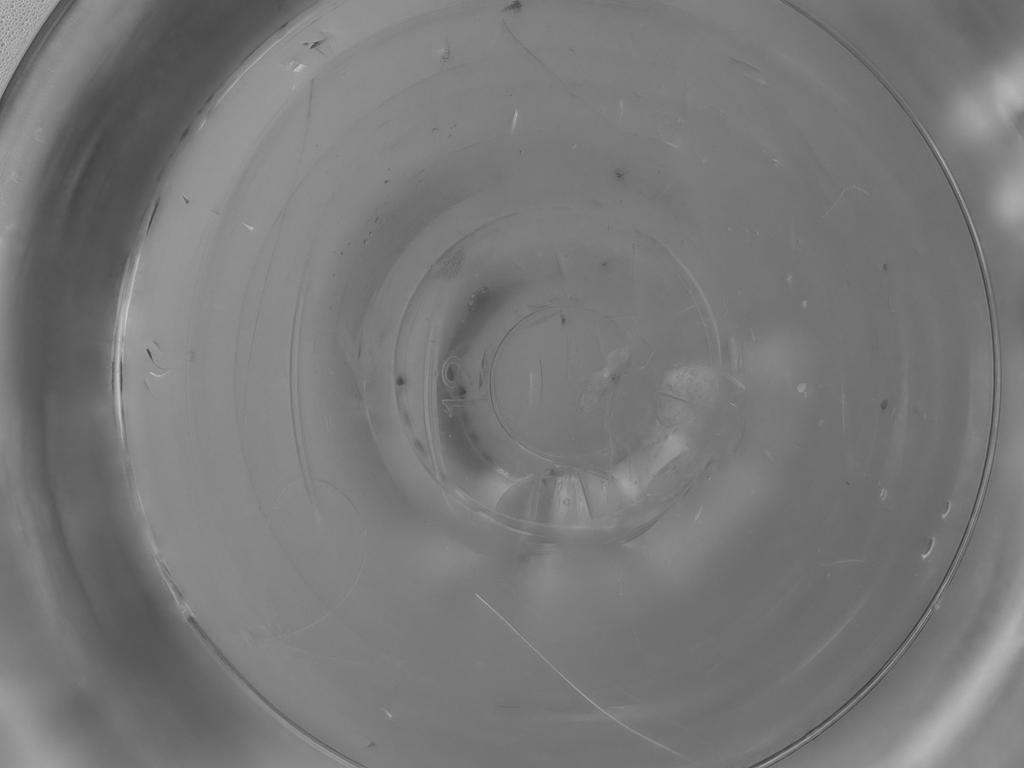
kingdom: Animalia
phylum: Arthropoda
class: Insecta
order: Diptera
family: Cecidomyiidae
